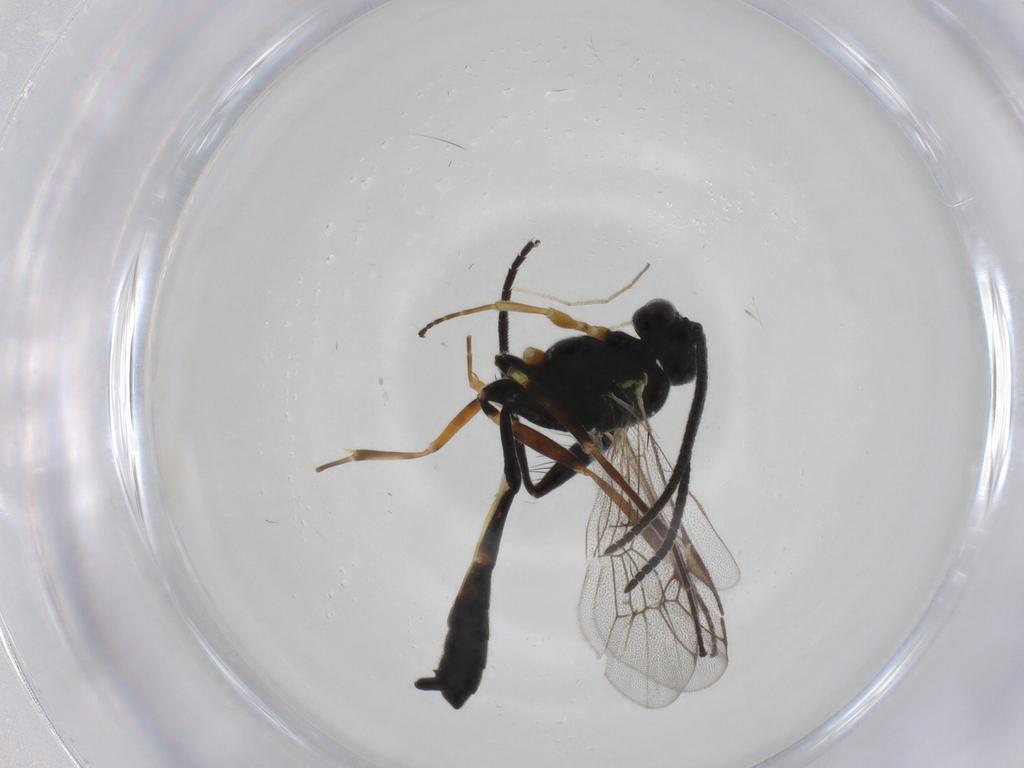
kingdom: Animalia
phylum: Arthropoda
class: Insecta
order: Hymenoptera
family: Ichneumonidae
